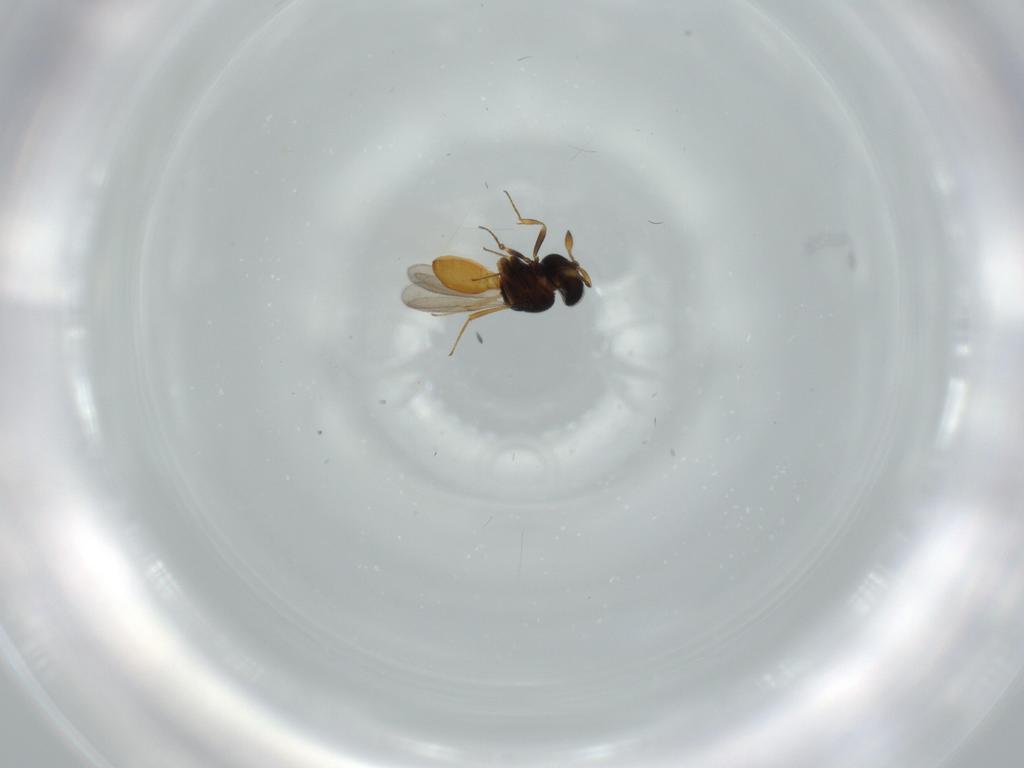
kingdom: Animalia
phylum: Arthropoda
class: Insecta
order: Hymenoptera
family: Scelionidae
